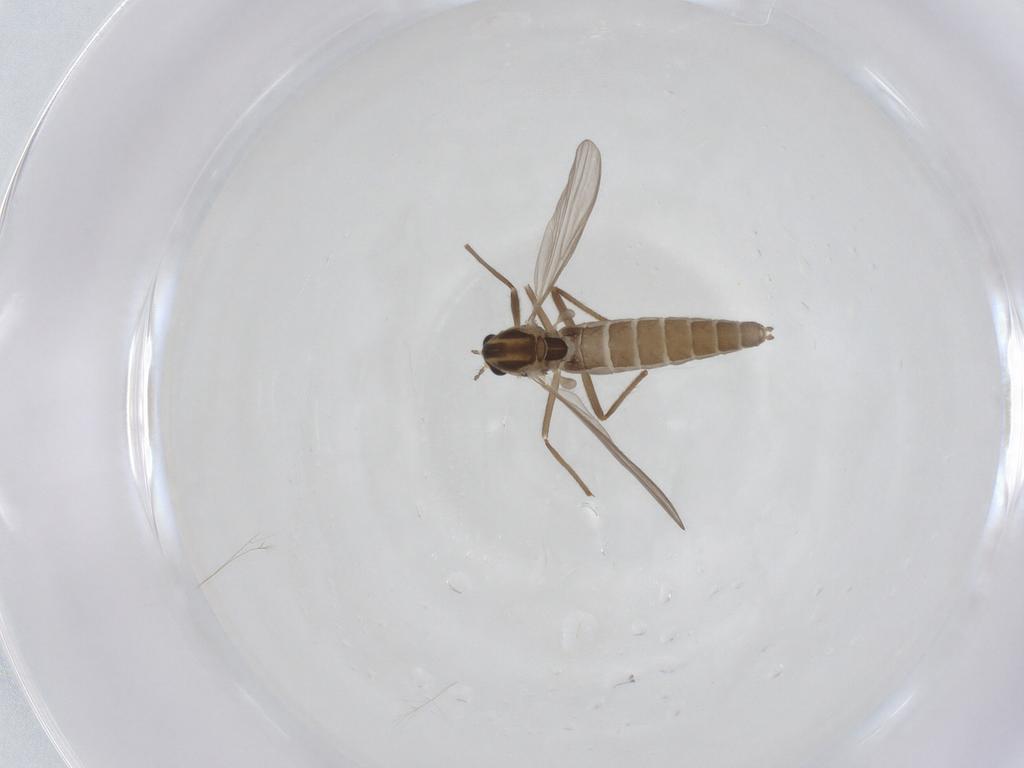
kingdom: Animalia
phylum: Arthropoda
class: Insecta
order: Diptera
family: Chironomidae
